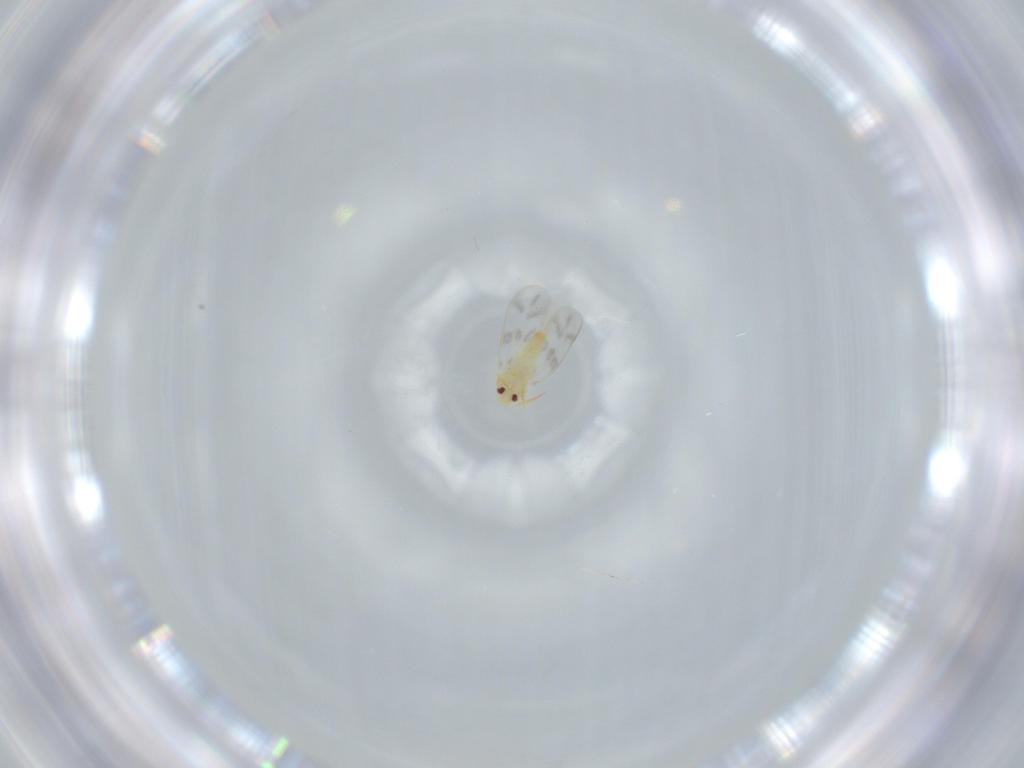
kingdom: Animalia
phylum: Arthropoda
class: Insecta
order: Hemiptera
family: Aleyrodidae
